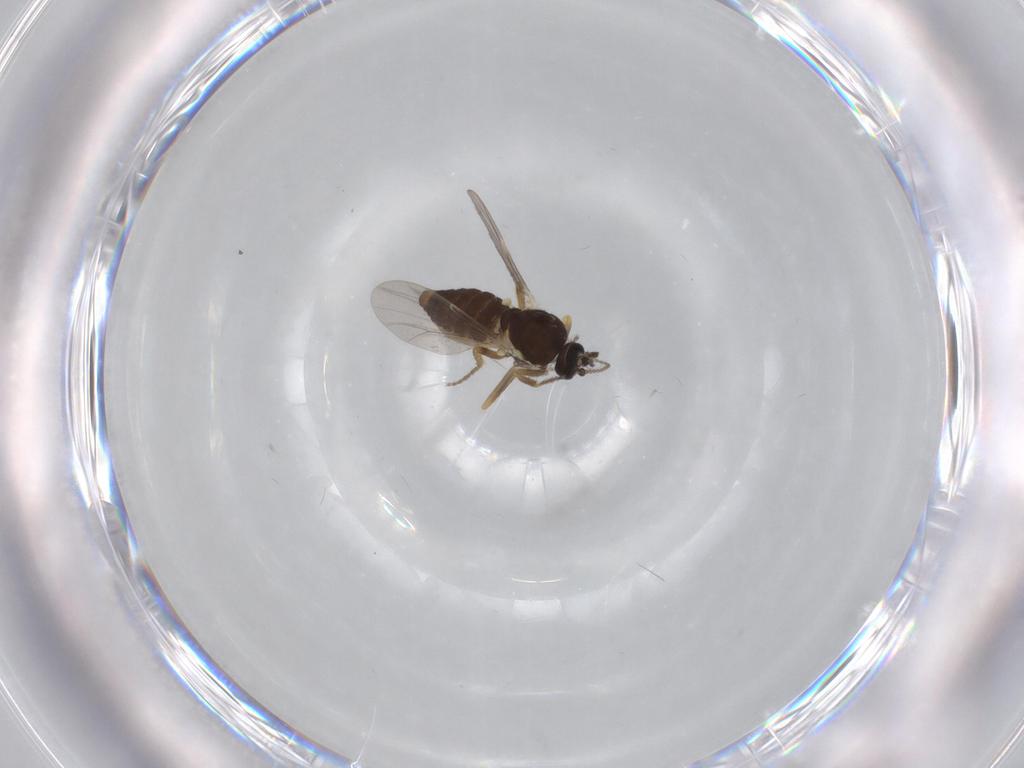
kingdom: Animalia
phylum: Arthropoda
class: Insecta
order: Diptera
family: Ceratopogonidae
